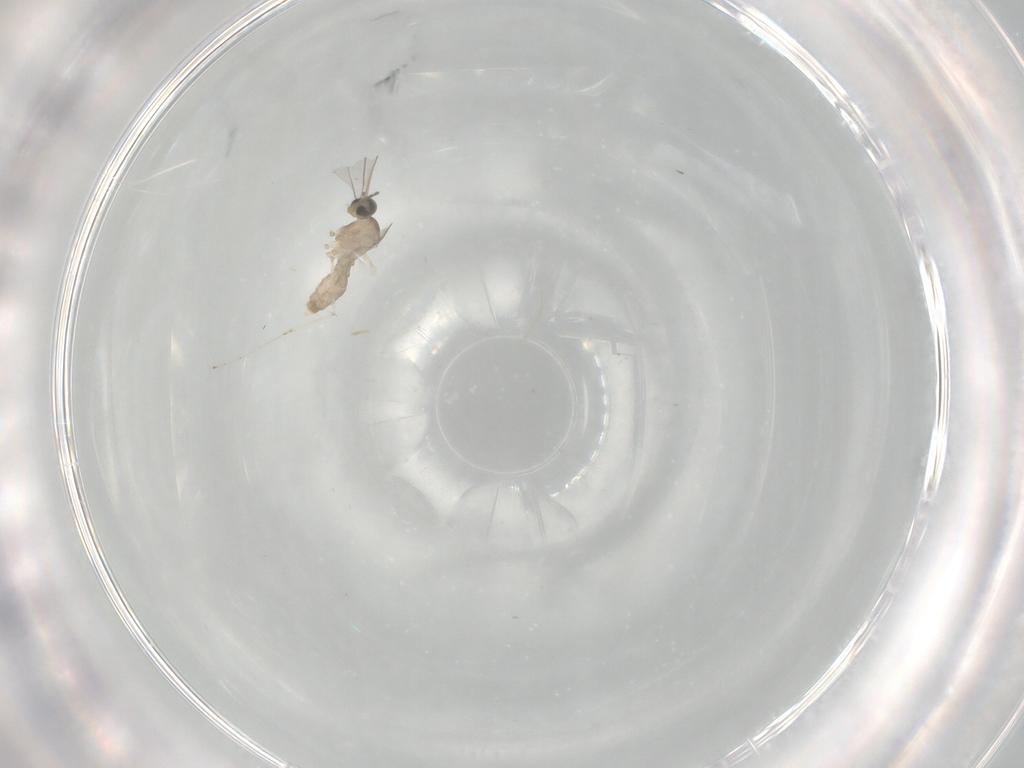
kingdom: Animalia
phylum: Arthropoda
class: Insecta
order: Diptera
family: Cecidomyiidae
